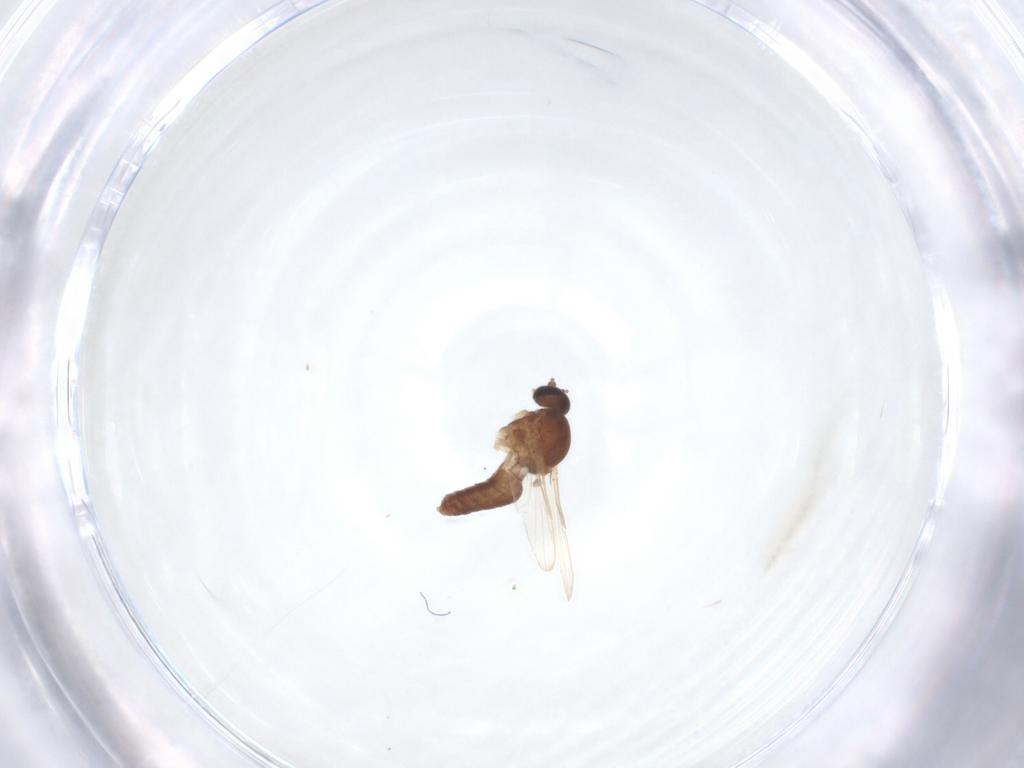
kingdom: Animalia
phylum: Arthropoda
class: Insecta
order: Diptera
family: Ceratopogonidae
